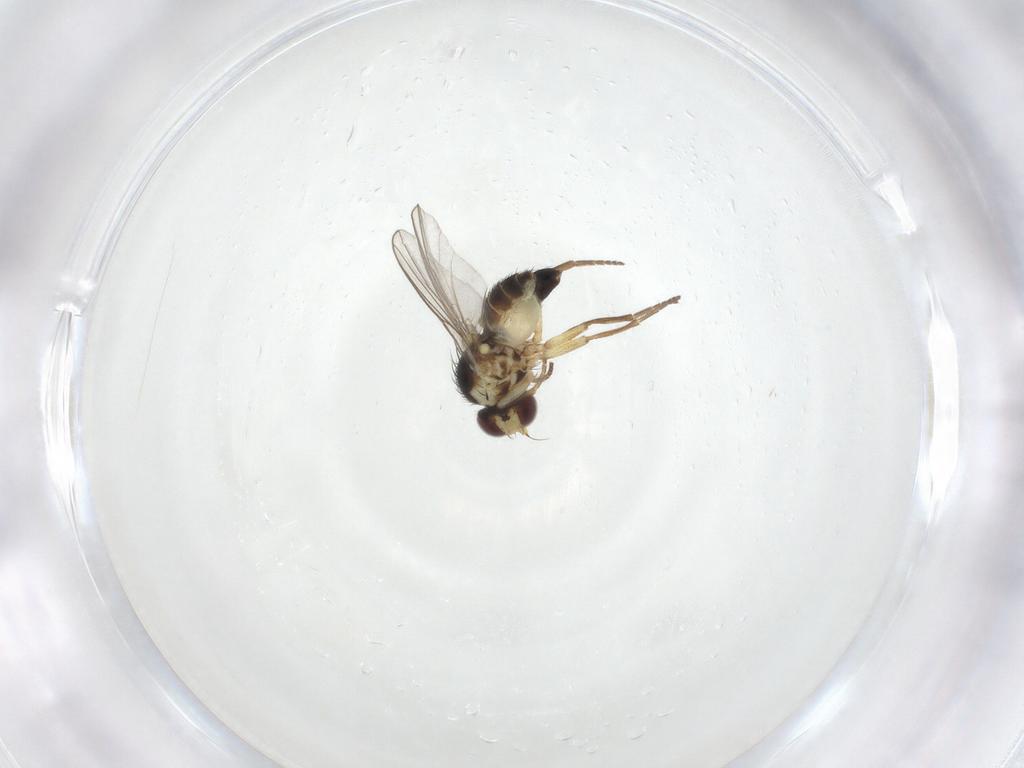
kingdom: Animalia
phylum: Arthropoda
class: Insecta
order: Diptera
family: Agromyzidae
